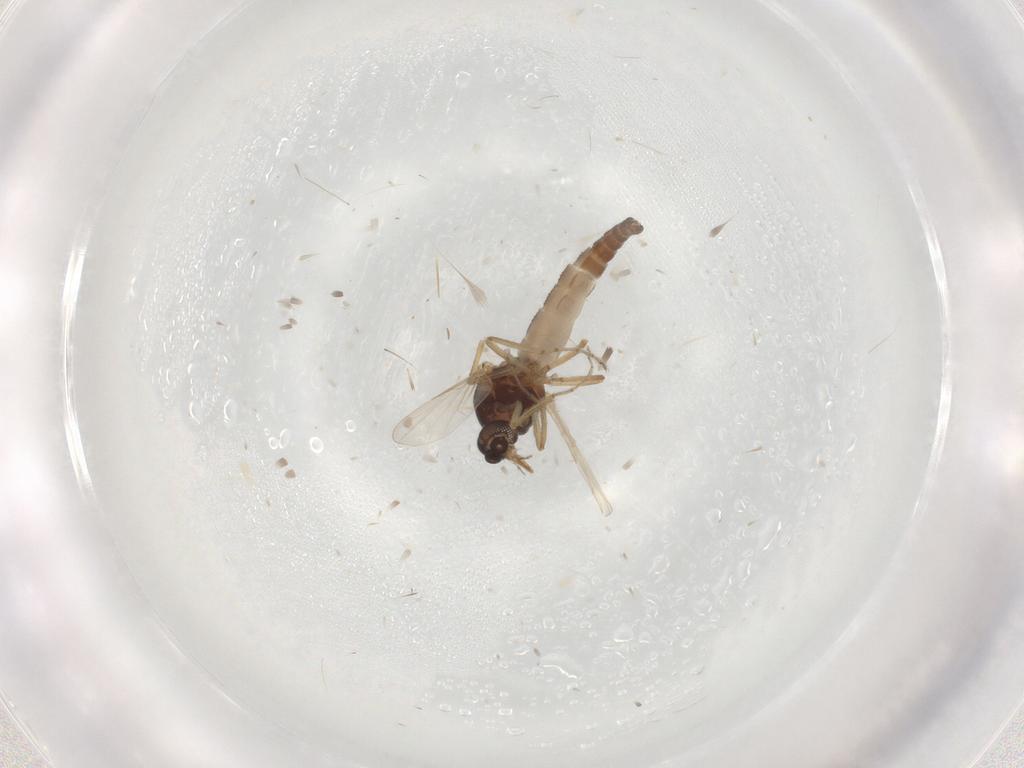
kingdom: Animalia
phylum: Arthropoda
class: Insecta
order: Diptera
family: Ceratopogonidae
